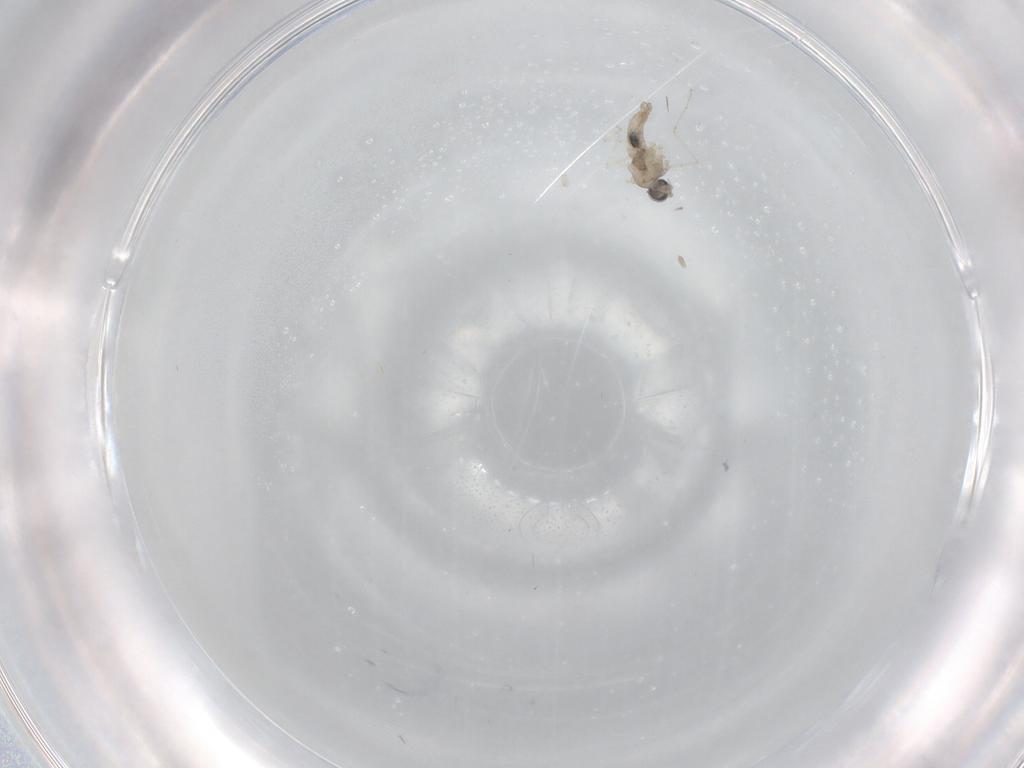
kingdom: Animalia
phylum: Arthropoda
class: Insecta
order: Diptera
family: Cecidomyiidae
